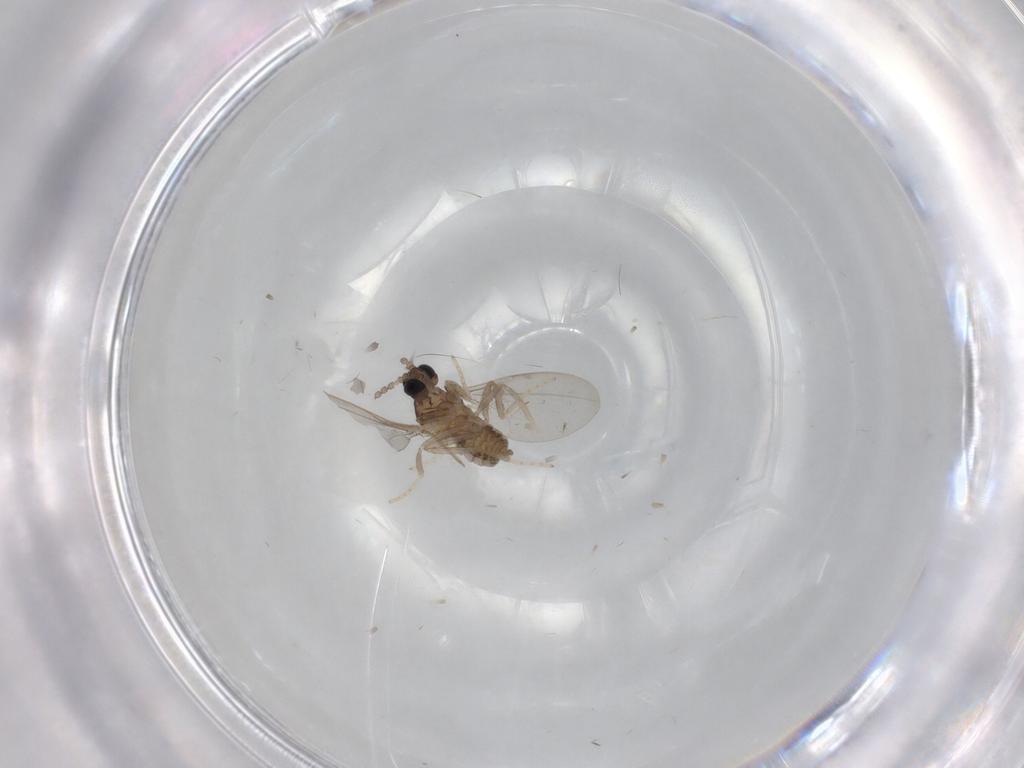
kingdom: Animalia
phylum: Arthropoda
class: Insecta
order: Diptera
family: Cecidomyiidae
